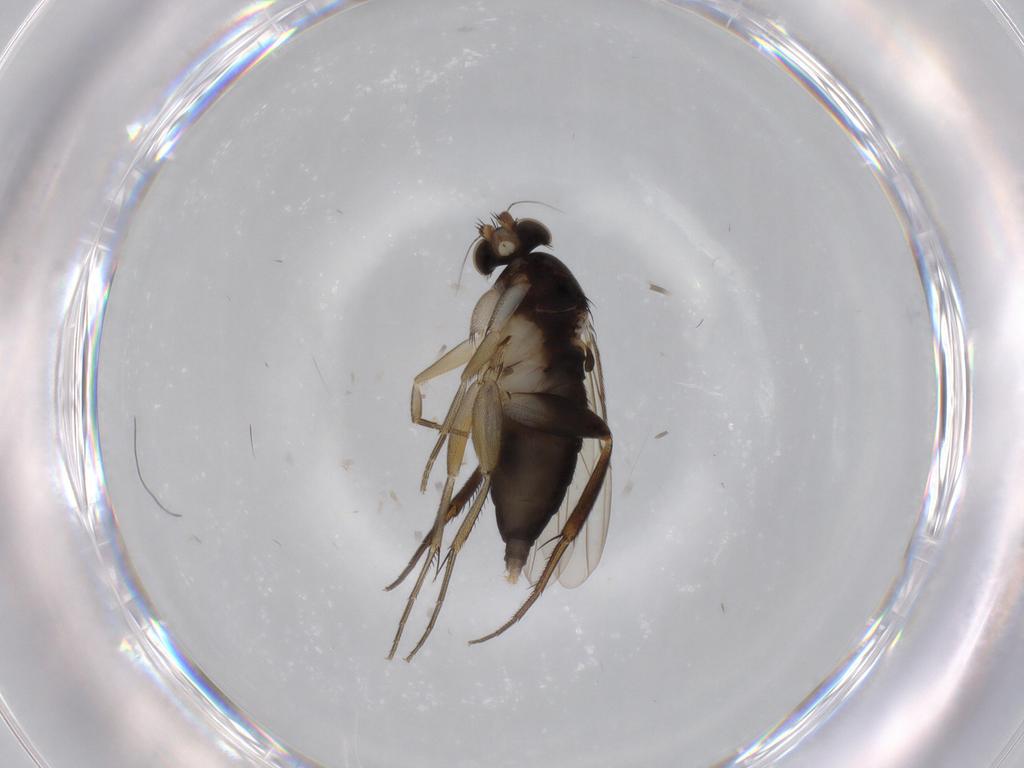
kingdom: Animalia
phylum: Arthropoda
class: Insecta
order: Diptera
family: Phoridae
